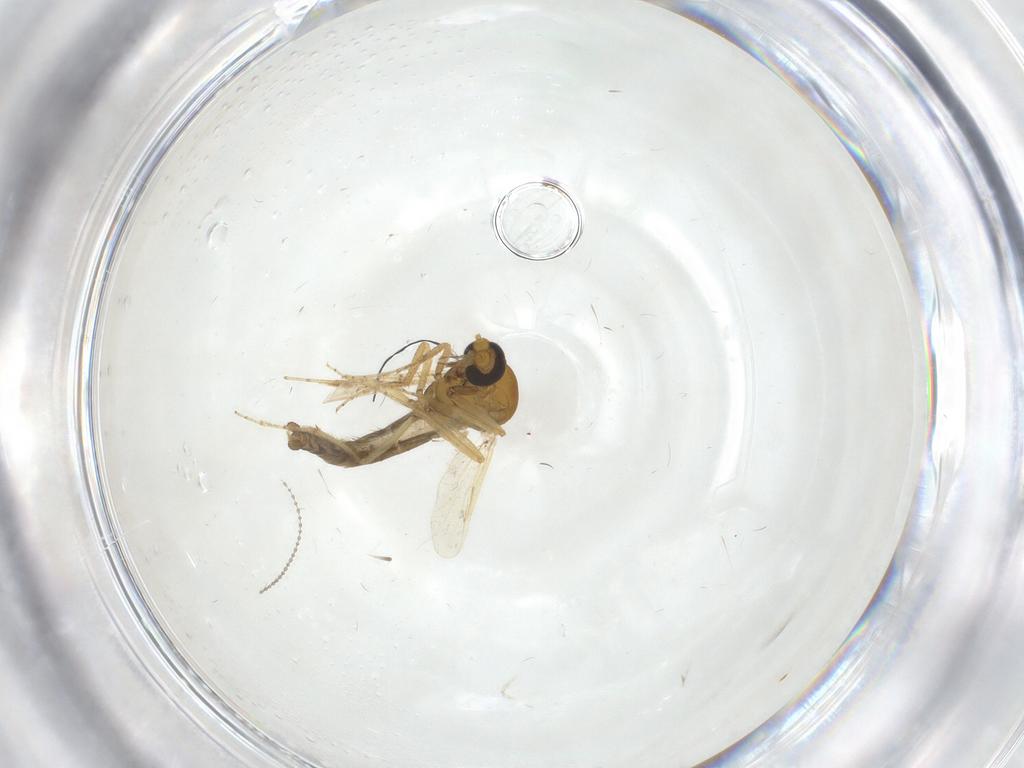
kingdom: Animalia
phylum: Arthropoda
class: Insecta
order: Diptera
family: Ceratopogonidae
